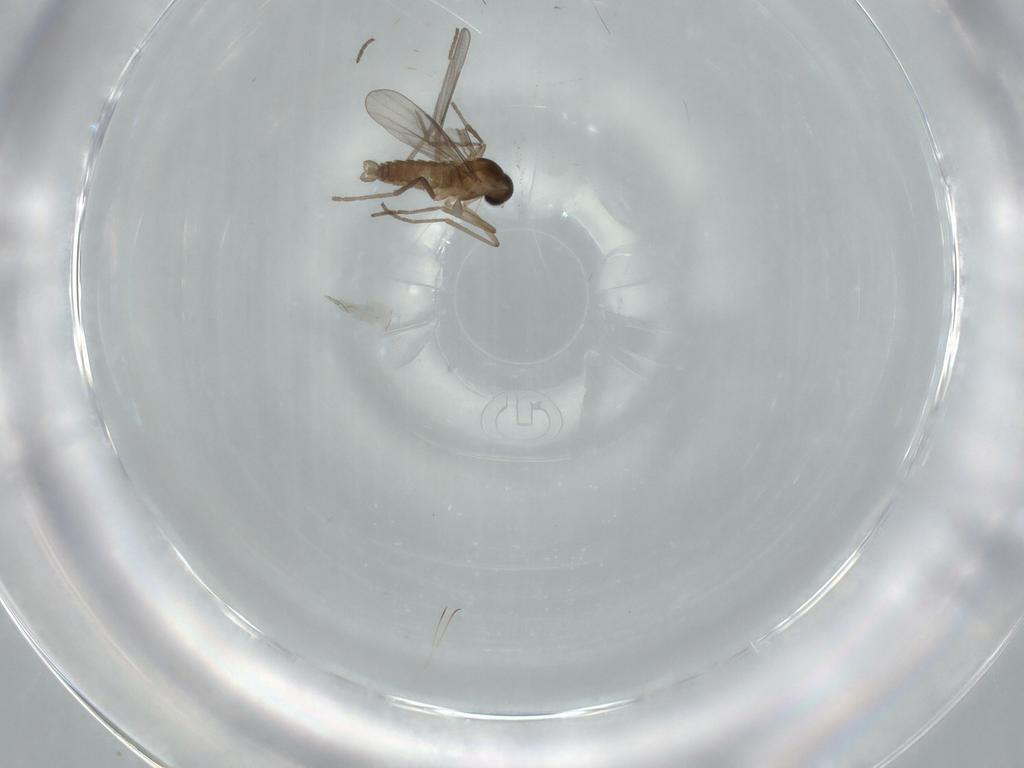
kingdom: Animalia
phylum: Arthropoda
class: Insecta
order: Diptera
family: Cecidomyiidae
